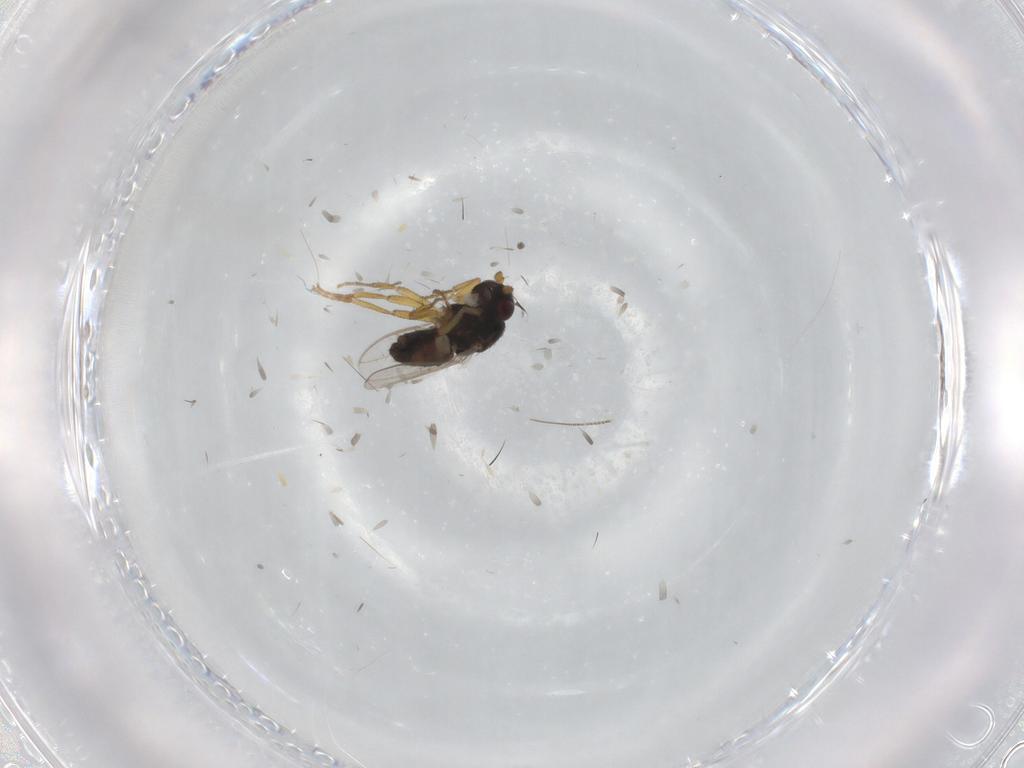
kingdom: Animalia
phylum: Arthropoda
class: Insecta
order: Diptera
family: Sphaeroceridae
